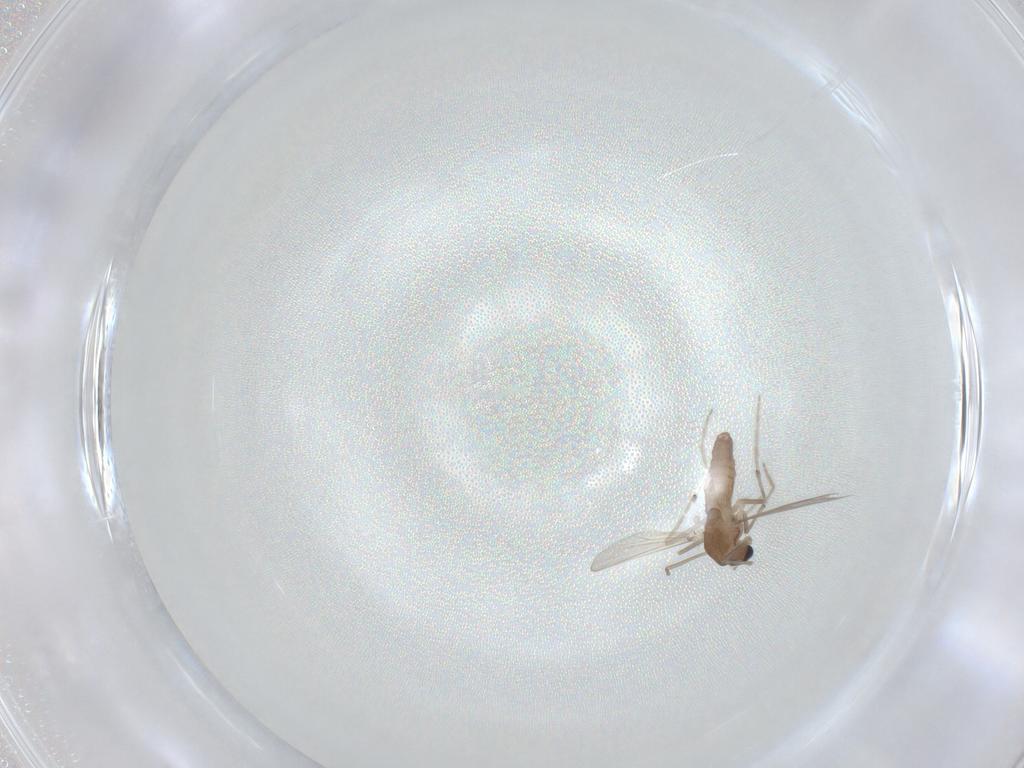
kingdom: Animalia
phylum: Arthropoda
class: Insecta
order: Diptera
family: Chironomidae
